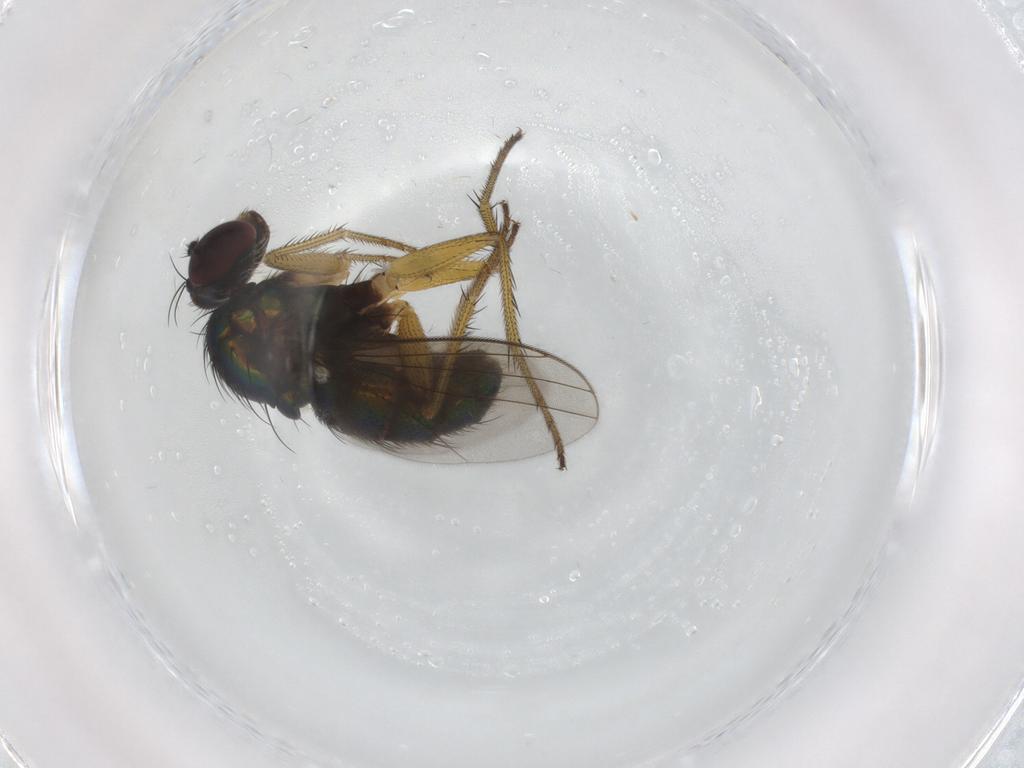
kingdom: Animalia
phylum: Arthropoda
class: Insecta
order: Diptera
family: Dolichopodidae
